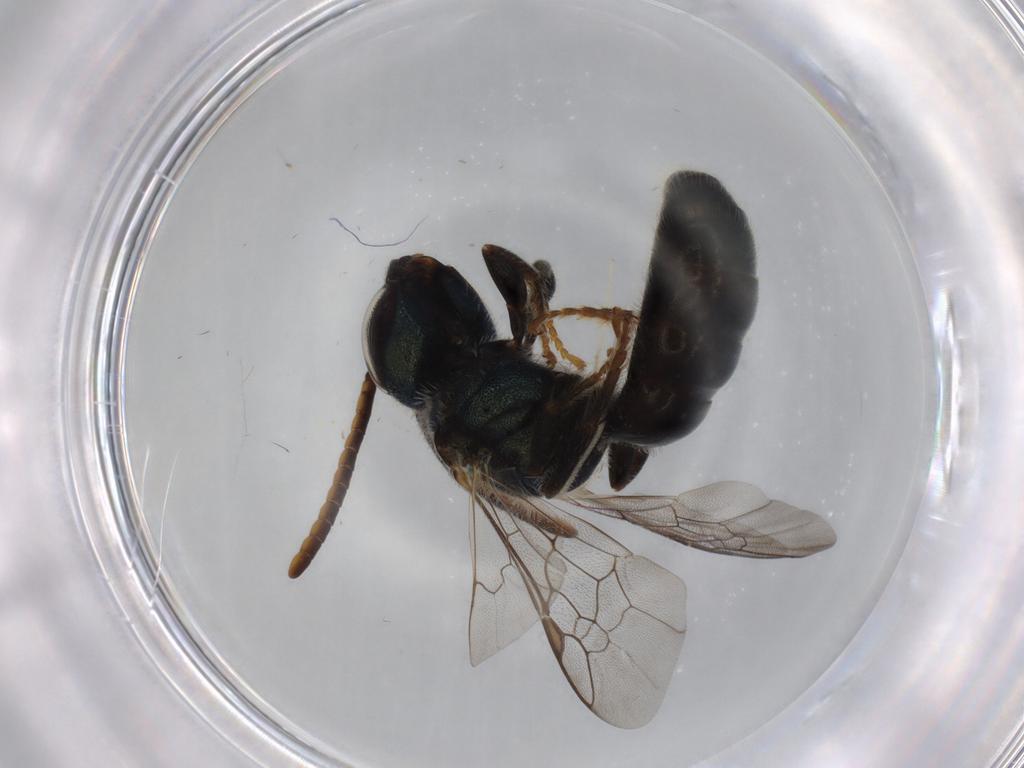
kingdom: Animalia
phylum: Arthropoda
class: Insecta
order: Hymenoptera
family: Halictidae
